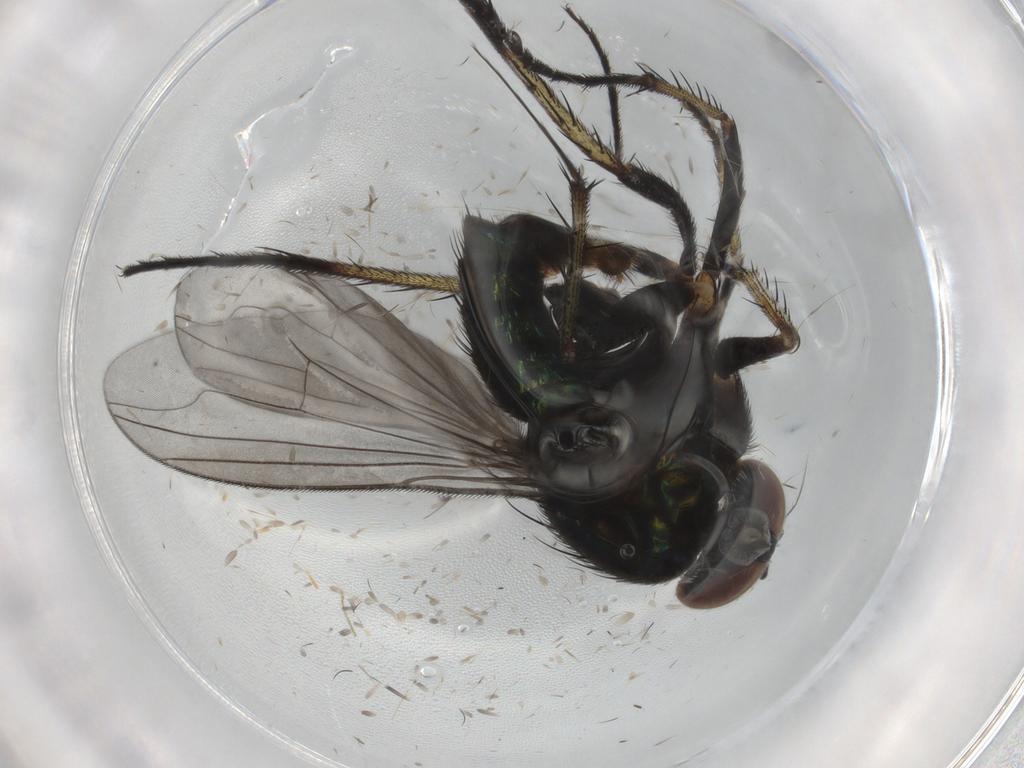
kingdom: Animalia
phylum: Arthropoda
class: Insecta
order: Diptera
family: Dolichopodidae
